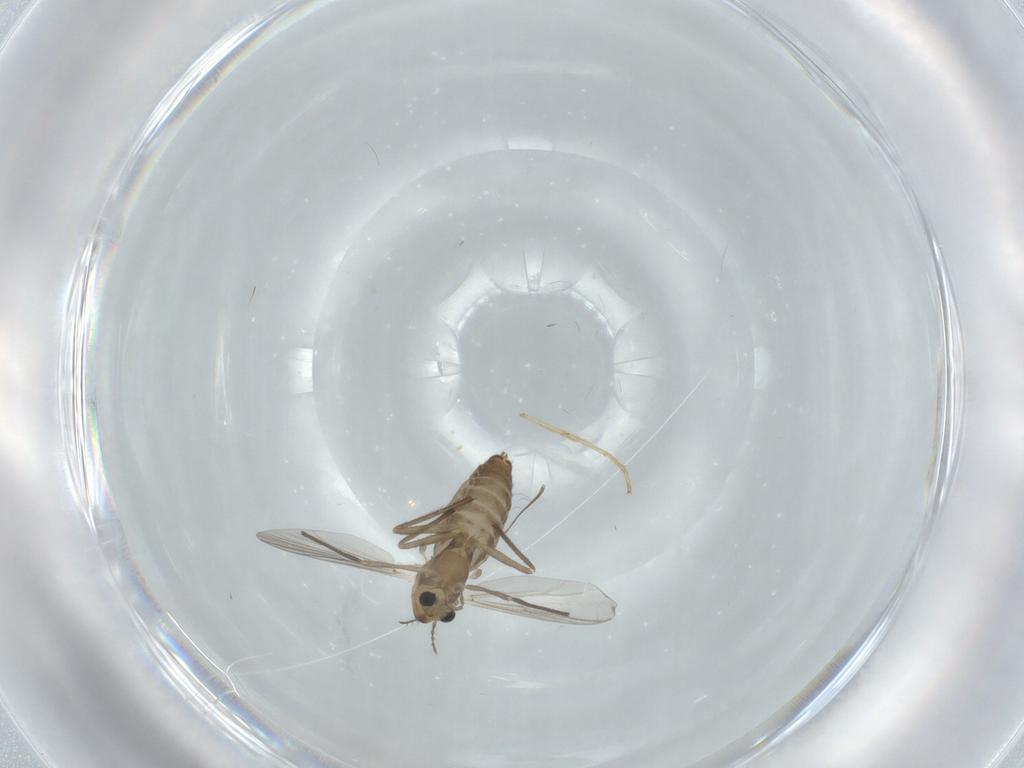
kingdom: Animalia
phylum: Arthropoda
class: Insecta
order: Diptera
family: Chironomidae
